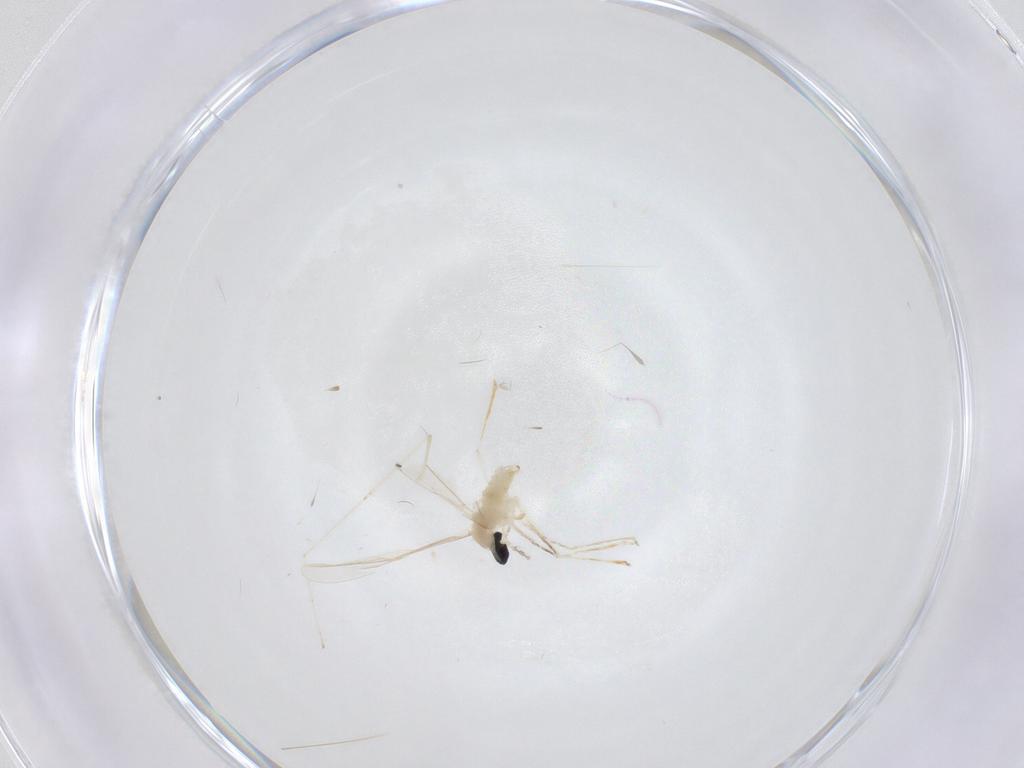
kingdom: Animalia
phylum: Arthropoda
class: Insecta
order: Diptera
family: Cecidomyiidae
